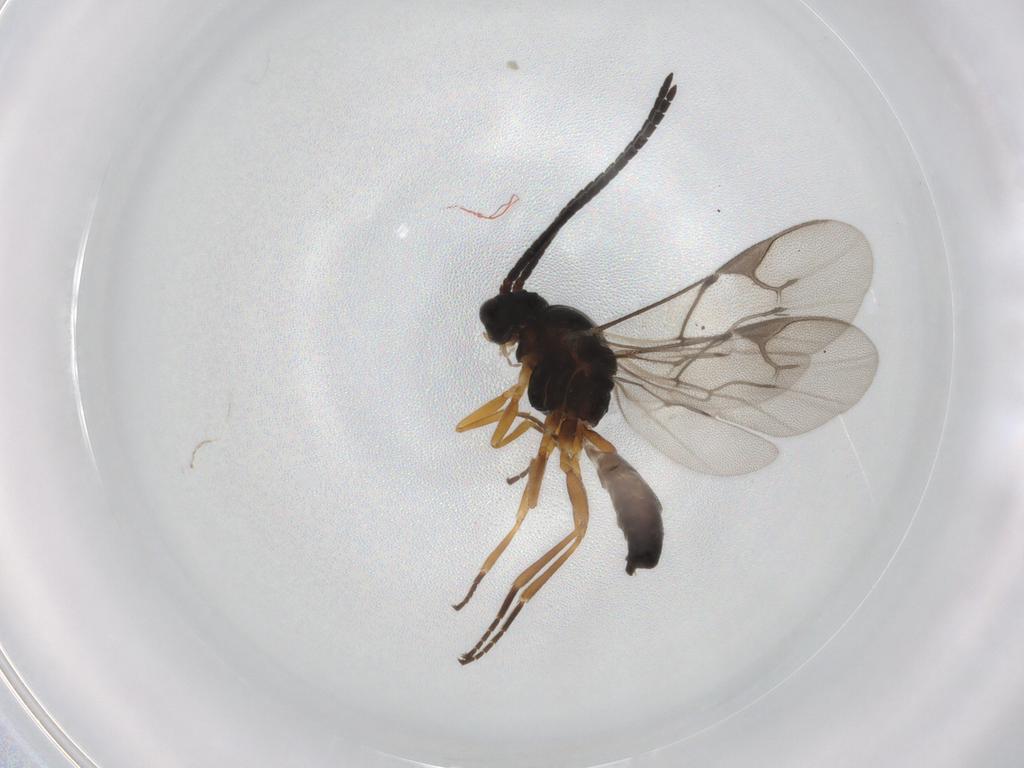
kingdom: Animalia
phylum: Arthropoda
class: Insecta
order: Hymenoptera
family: Braconidae
